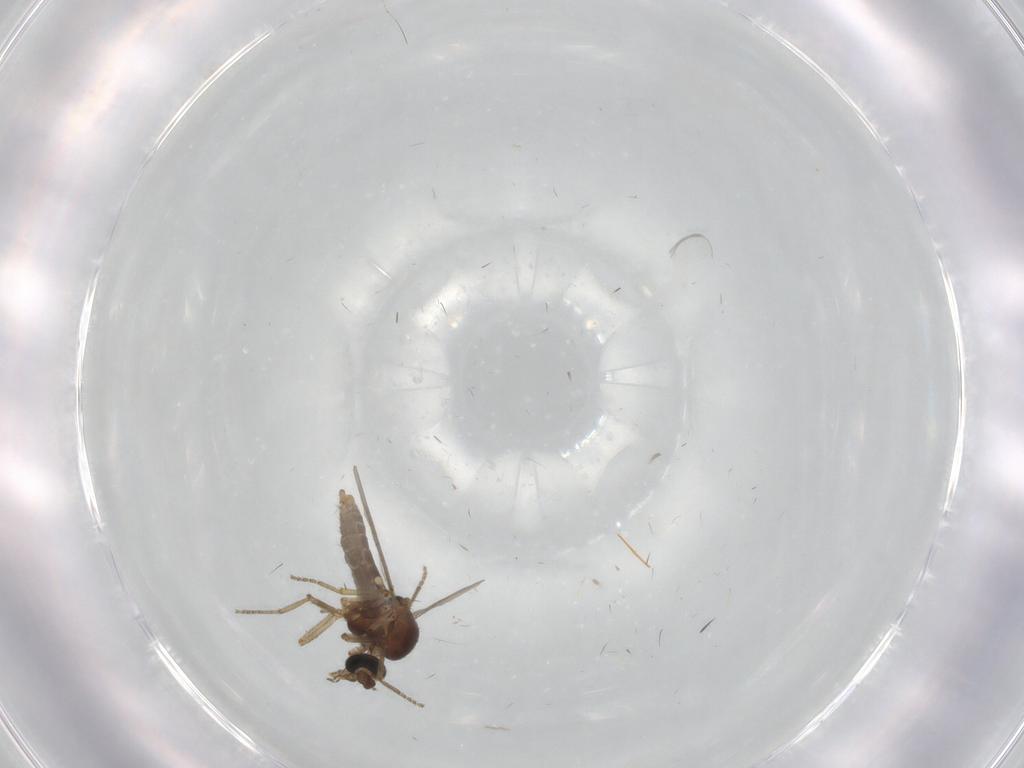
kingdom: Animalia
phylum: Arthropoda
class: Insecta
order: Diptera
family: Ceratopogonidae
